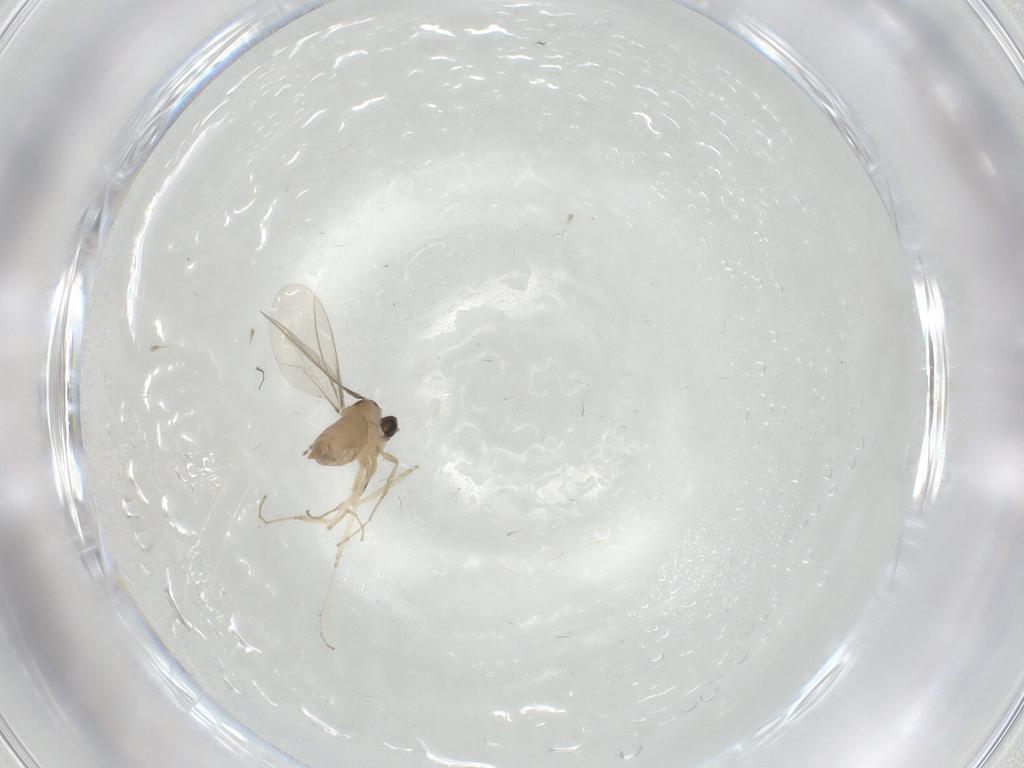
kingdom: Animalia
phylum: Arthropoda
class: Insecta
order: Diptera
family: Cecidomyiidae
